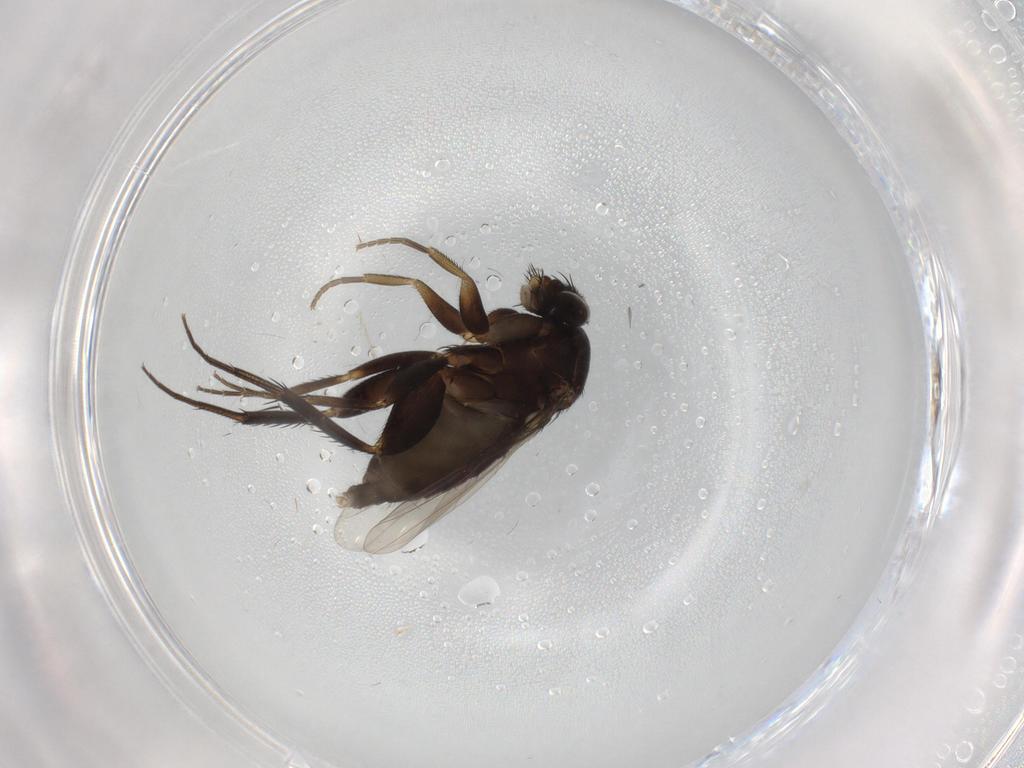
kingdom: Animalia
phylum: Arthropoda
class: Insecta
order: Diptera
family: Phoridae
